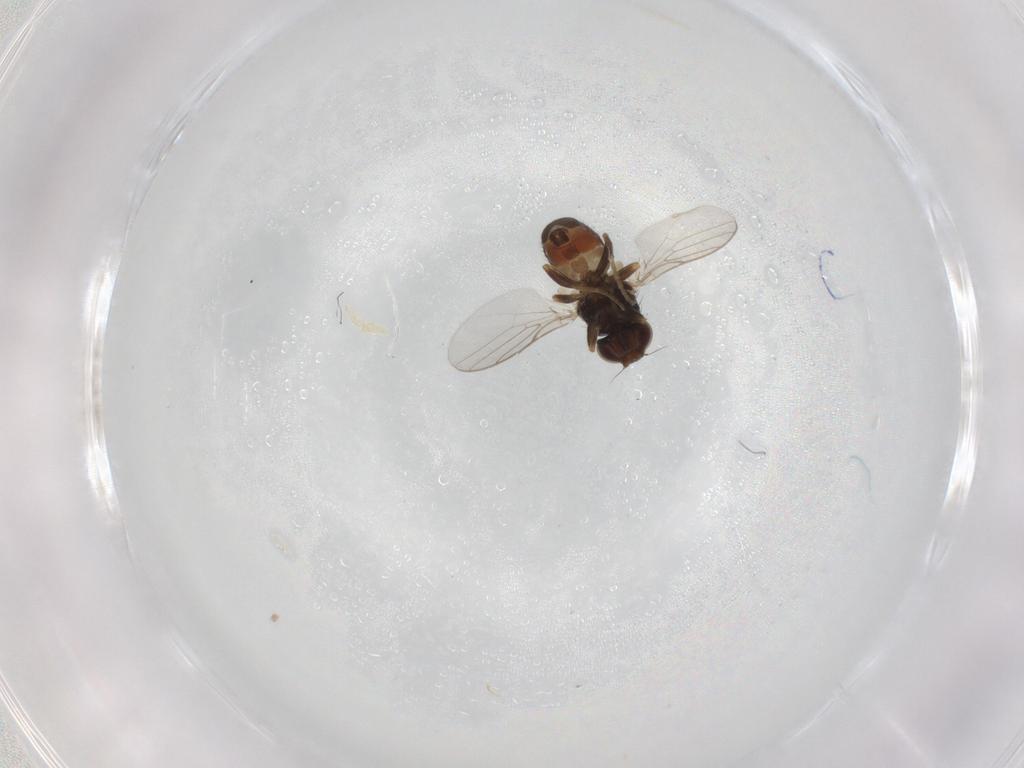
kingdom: Animalia
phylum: Arthropoda
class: Insecta
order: Diptera
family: Chloropidae
